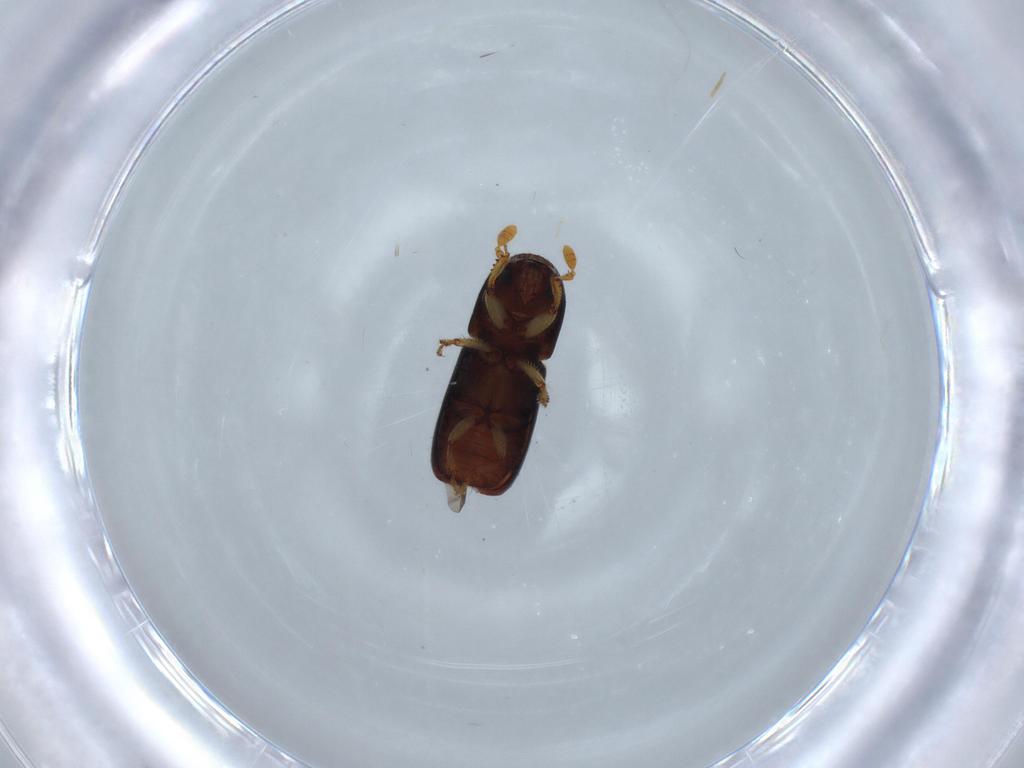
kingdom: Animalia
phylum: Arthropoda
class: Insecta
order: Coleoptera
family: Curculionidae
